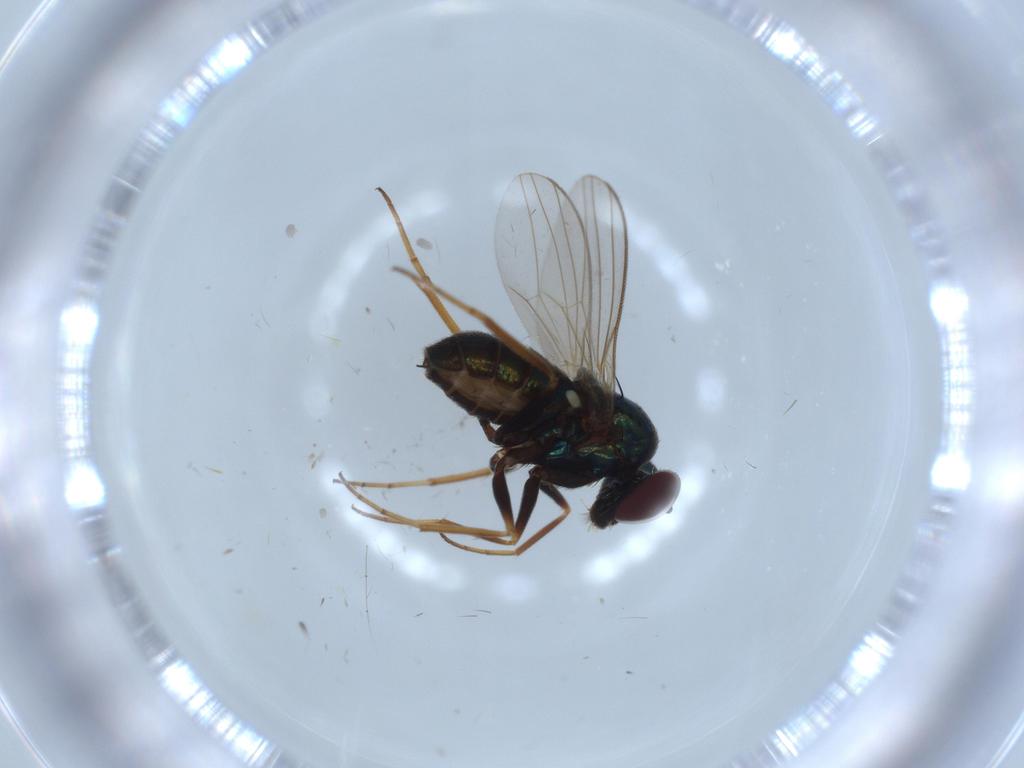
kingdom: Animalia
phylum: Arthropoda
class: Insecta
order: Diptera
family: Dolichopodidae
